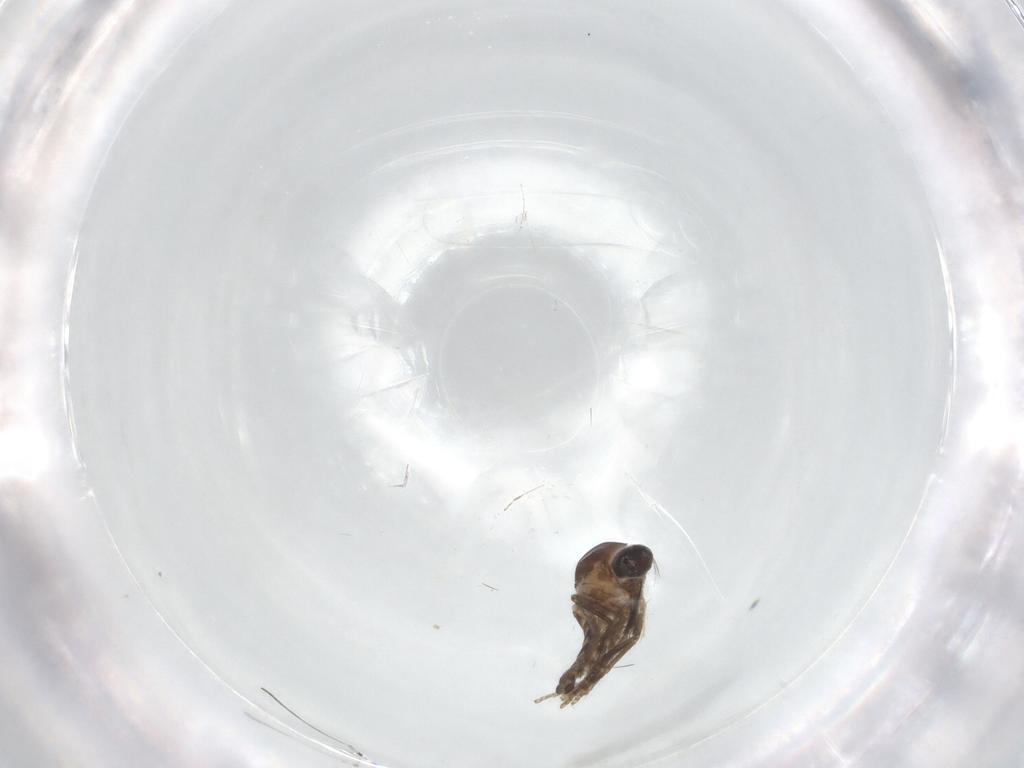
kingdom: Animalia
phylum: Arthropoda
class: Insecta
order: Diptera
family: Ceratopogonidae
